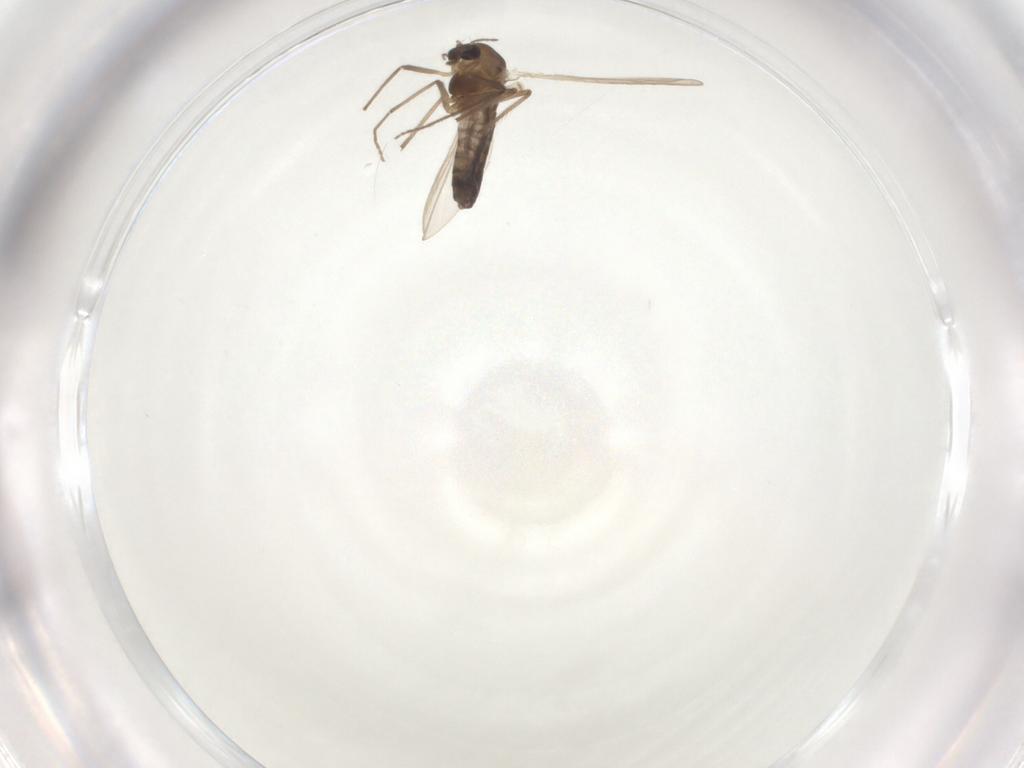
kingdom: Animalia
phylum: Arthropoda
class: Insecta
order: Diptera
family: Chironomidae
